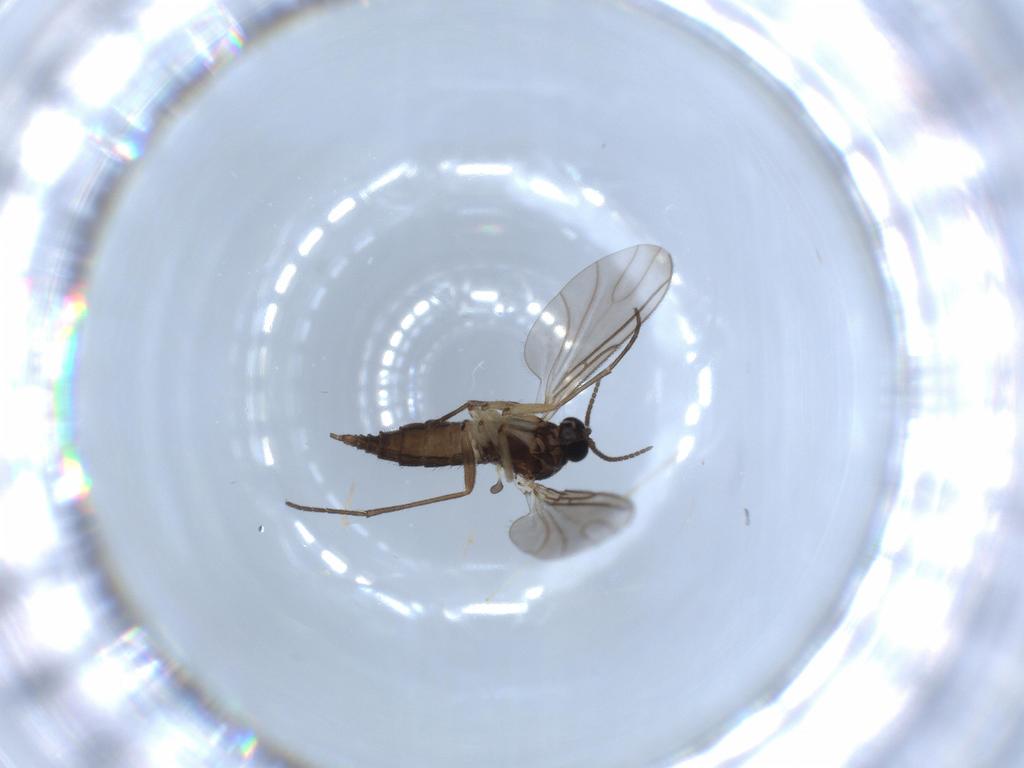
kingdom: Animalia
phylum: Arthropoda
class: Insecta
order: Diptera
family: Sciaridae
